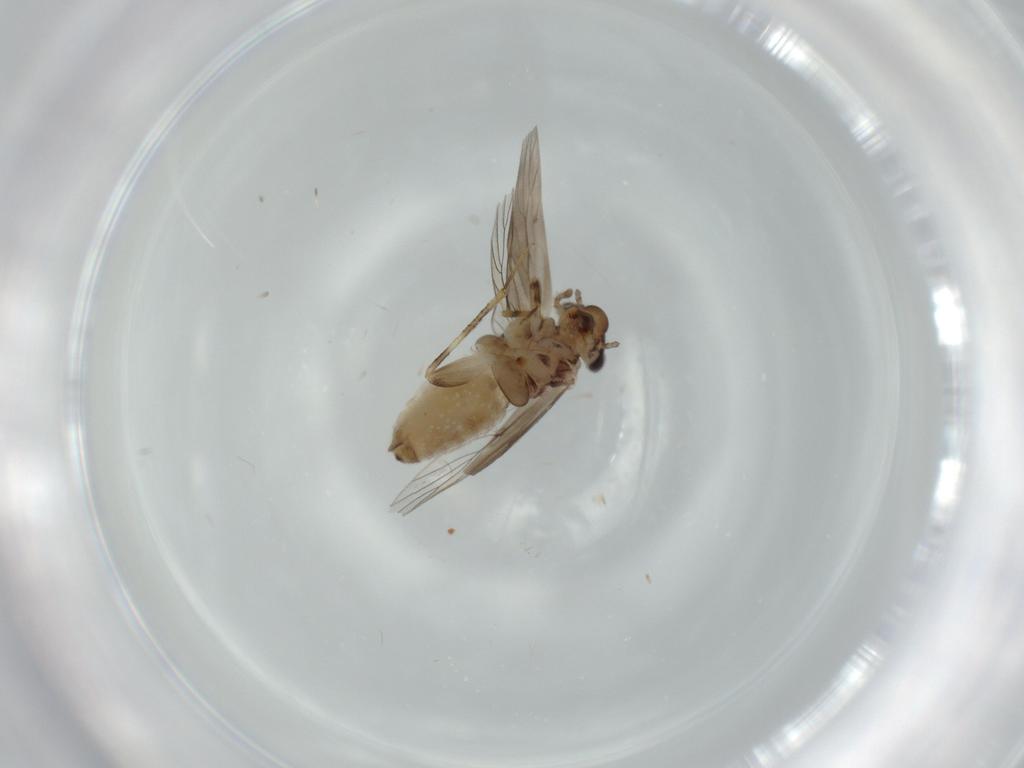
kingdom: Animalia
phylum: Arthropoda
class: Insecta
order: Psocodea
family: Lepidopsocidae
